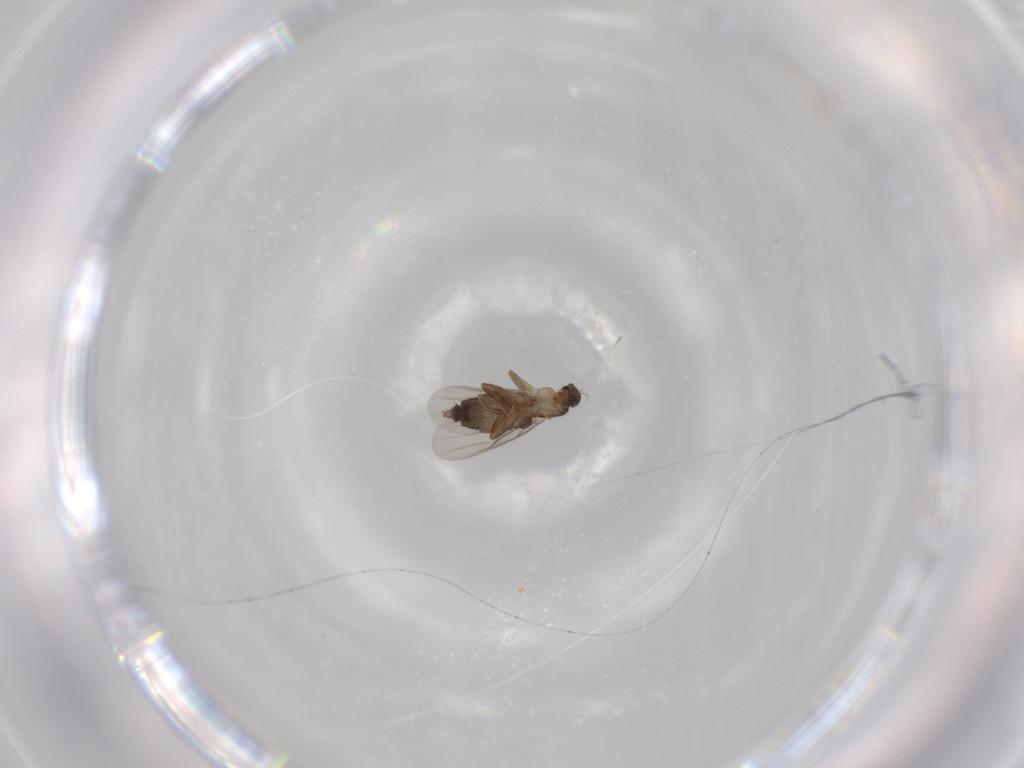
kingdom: Animalia
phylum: Arthropoda
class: Insecta
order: Diptera
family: Phoridae
